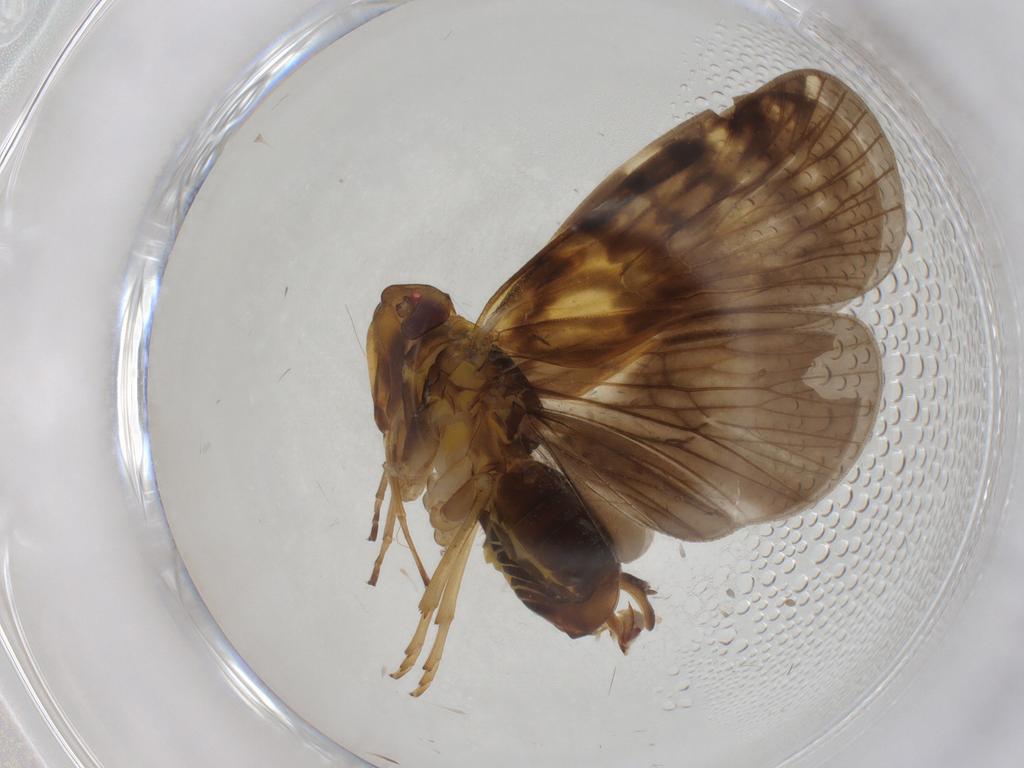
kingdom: Animalia
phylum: Arthropoda
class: Insecta
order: Hemiptera
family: Cixiidae
